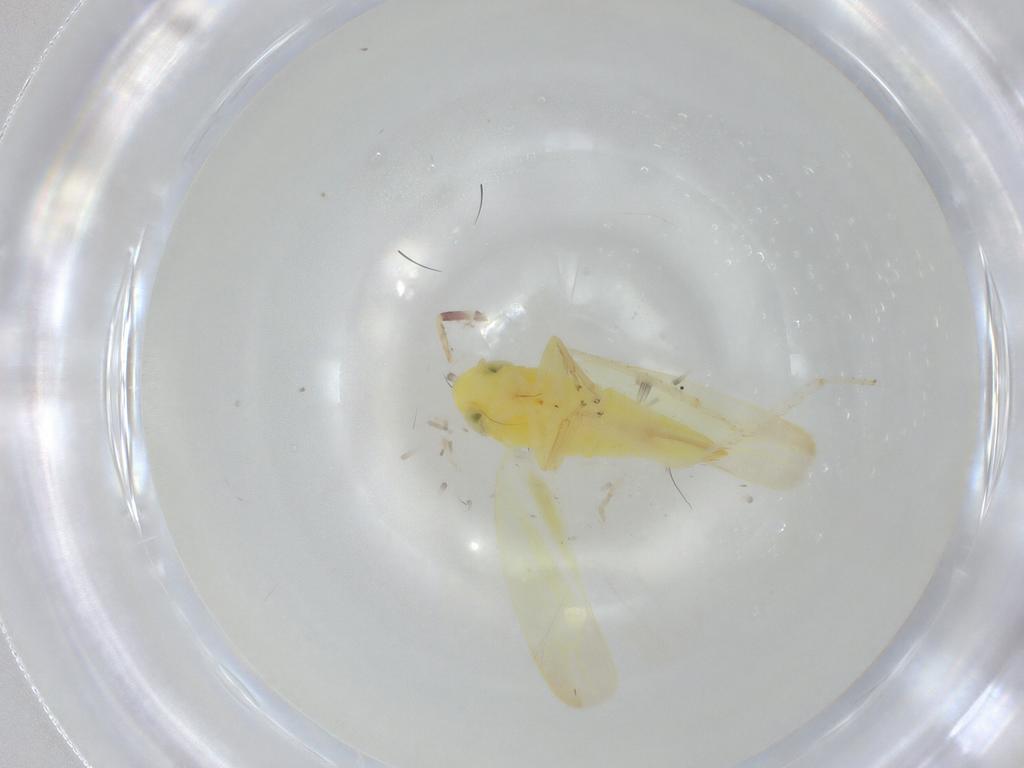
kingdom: Animalia
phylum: Arthropoda
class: Insecta
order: Hemiptera
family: Cicadellidae
